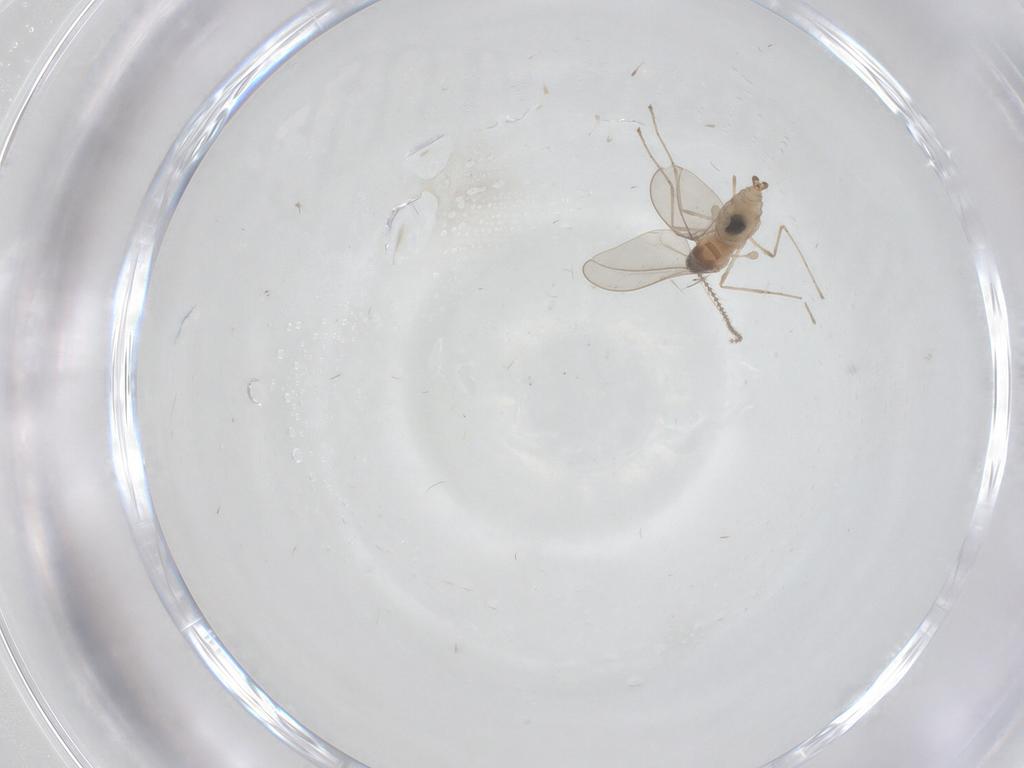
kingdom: Animalia
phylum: Arthropoda
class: Insecta
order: Diptera
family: Cecidomyiidae
